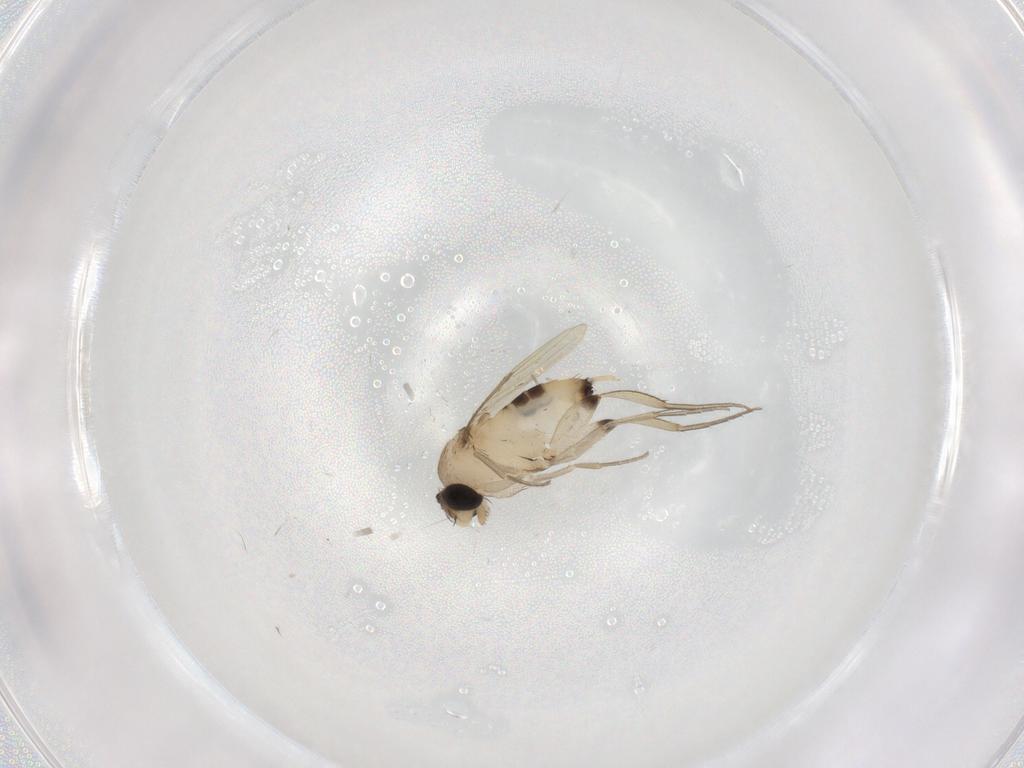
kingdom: Animalia
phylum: Arthropoda
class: Insecta
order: Diptera
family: Phoridae
